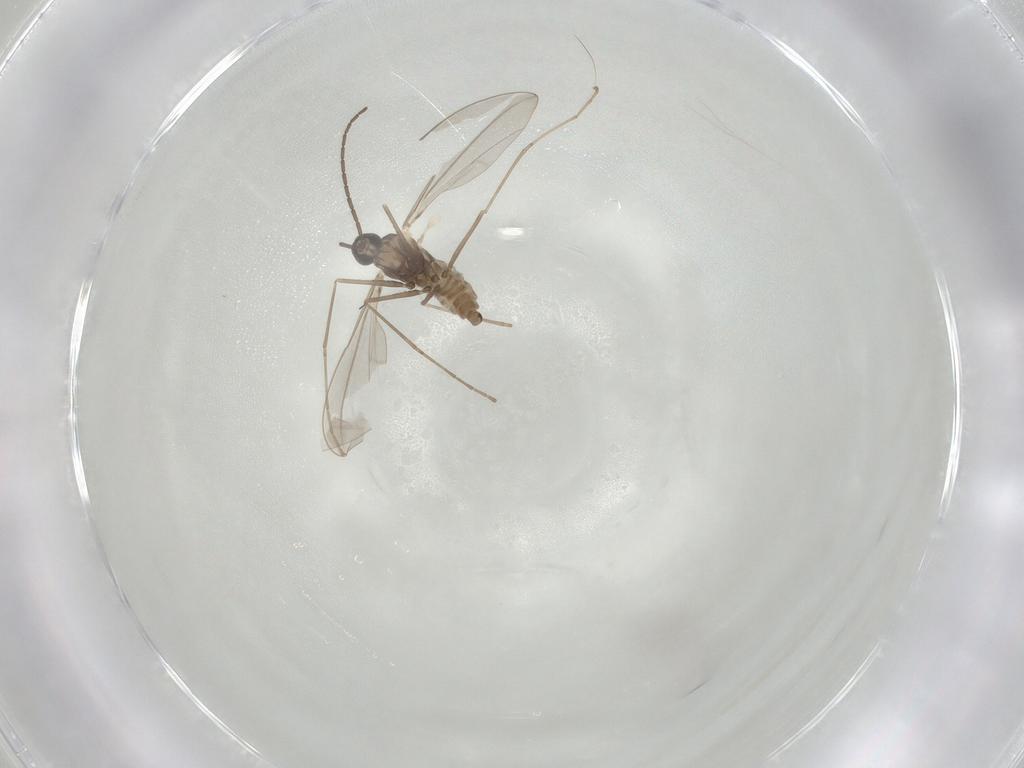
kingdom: Animalia
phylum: Arthropoda
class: Insecta
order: Diptera
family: Cecidomyiidae
